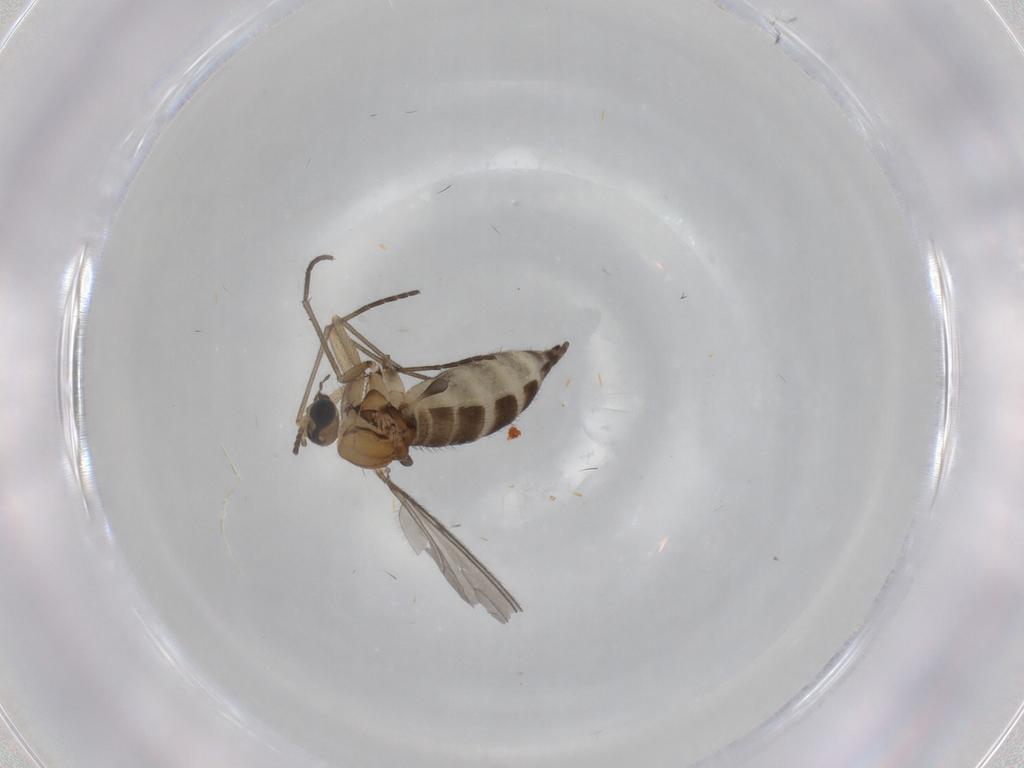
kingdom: Animalia
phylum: Arthropoda
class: Insecta
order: Diptera
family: Sciaridae
